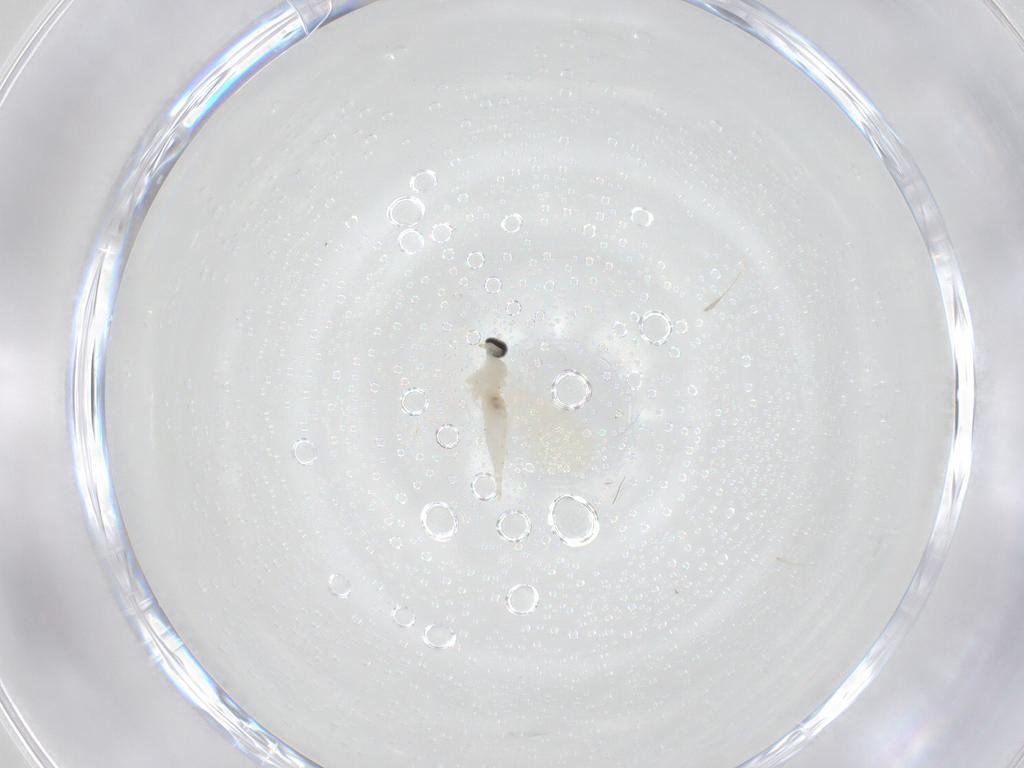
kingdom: Animalia
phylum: Arthropoda
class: Insecta
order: Diptera
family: Cecidomyiidae
